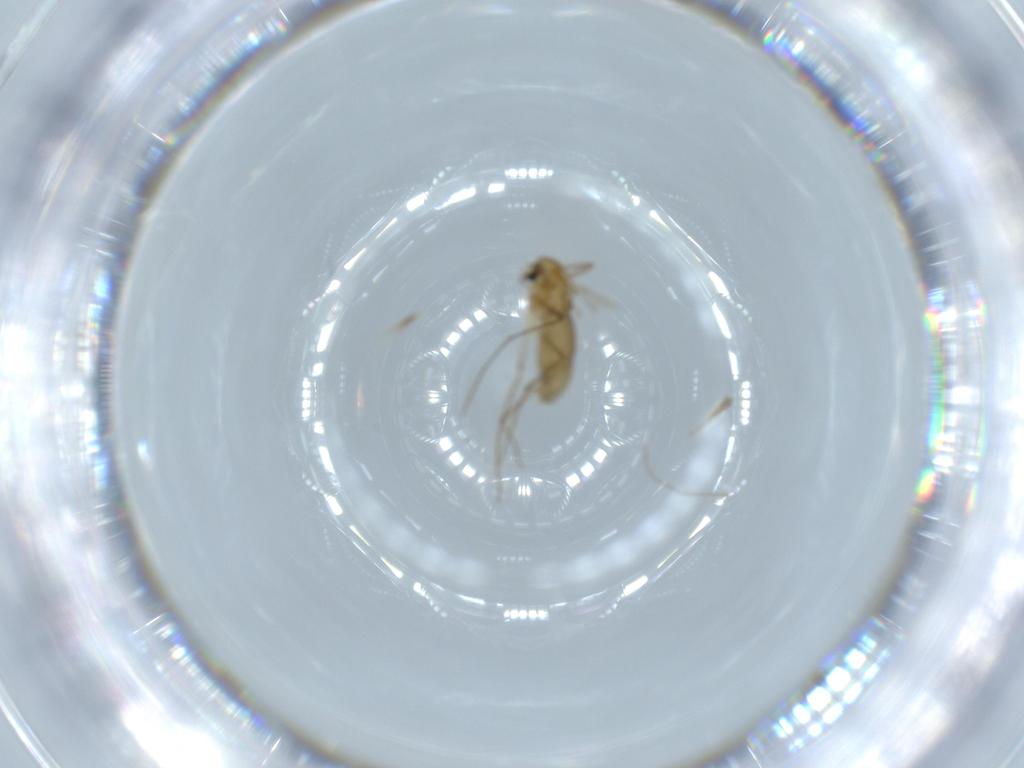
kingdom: Animalia
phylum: Arthropoda
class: Insecta
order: Diptera
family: Chironomidae
